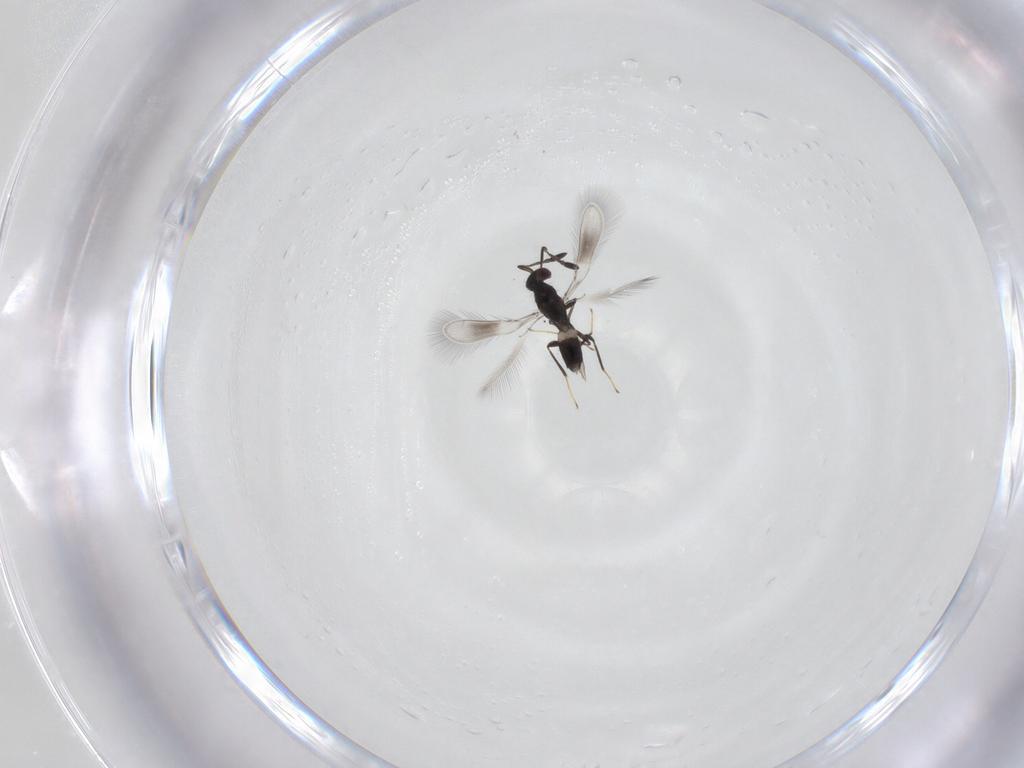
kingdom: Animalia
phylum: Arthropoda
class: Insecta
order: Hymenoptera
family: Mymaridae
